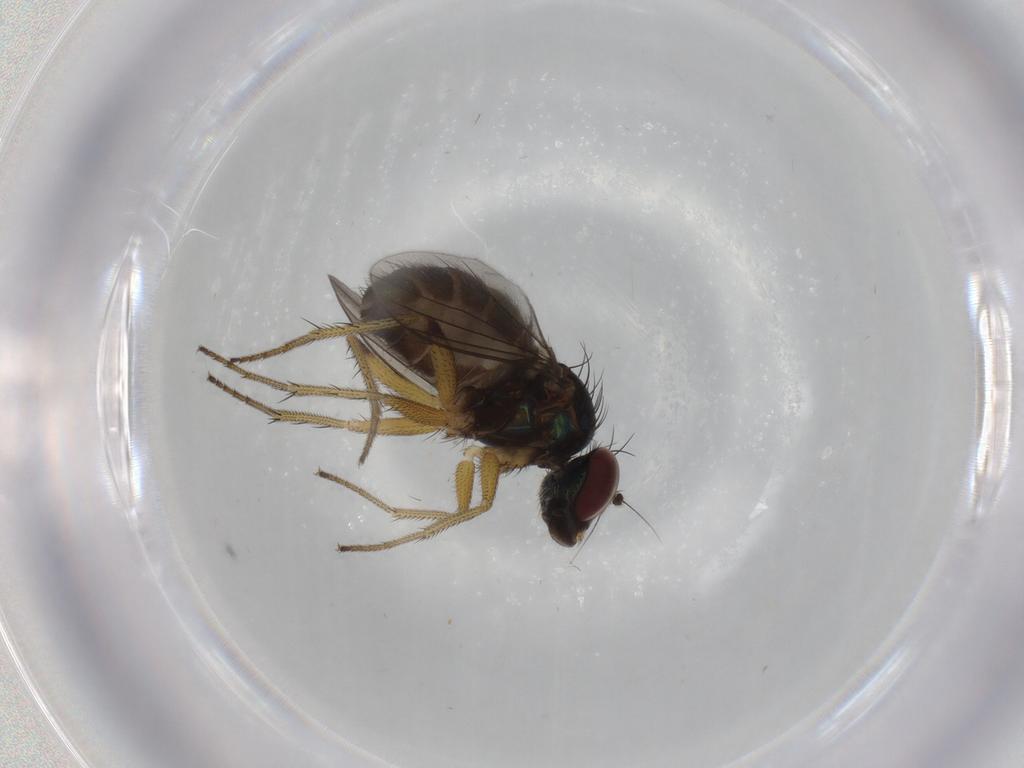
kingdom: Animalia
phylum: Arthropoda
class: Insecta
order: Diptera
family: Dolichopodidae
